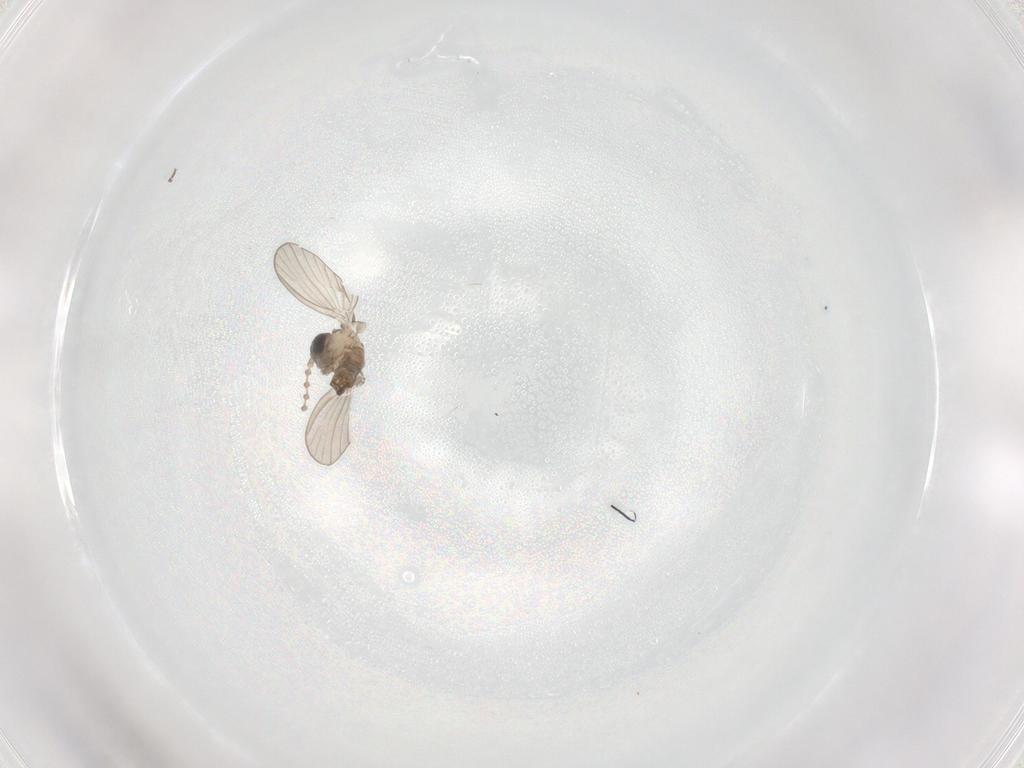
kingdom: Animalia
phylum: Arthropoda
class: Insecta
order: Diptera
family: Psychodidae
